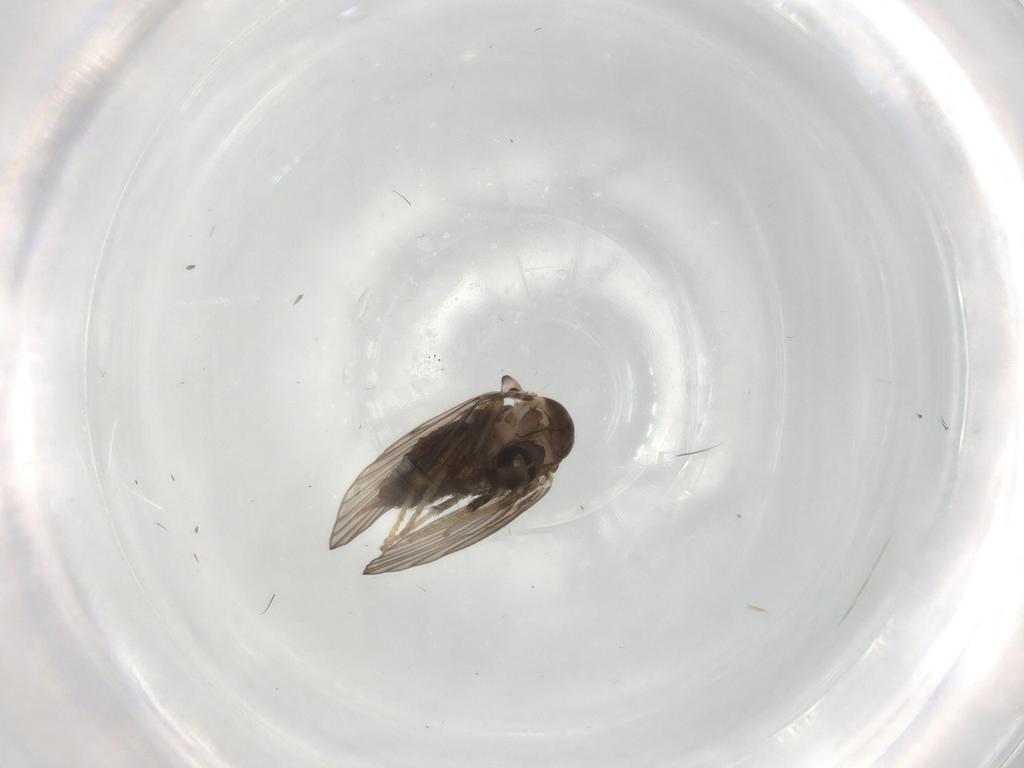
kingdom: Animalia
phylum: Arthropoda
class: Insecta
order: Diptera
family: Psychodidae
